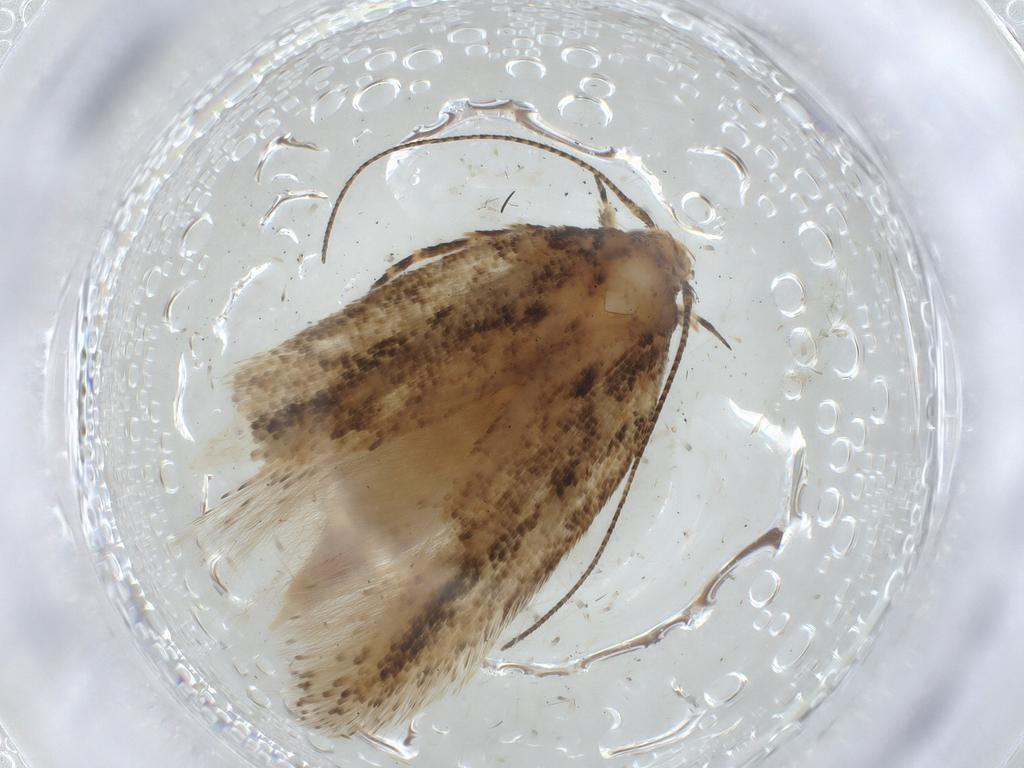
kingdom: Animalia
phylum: Arthropoda
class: Insecta
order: Lepidoptera
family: Gelechiidae
